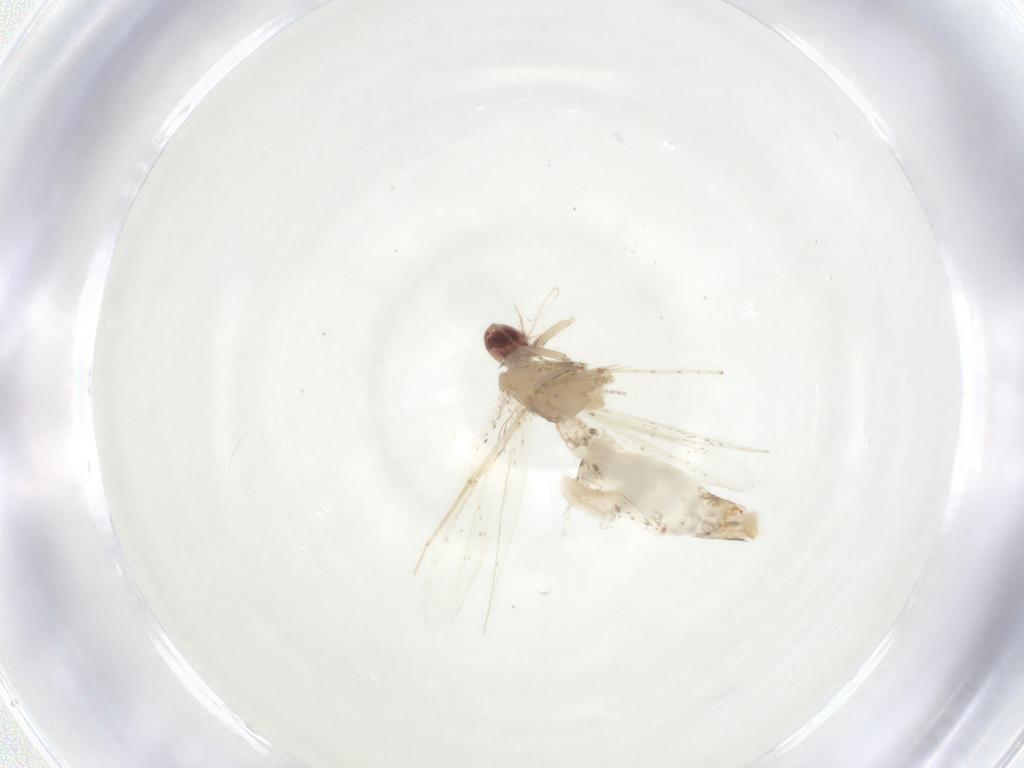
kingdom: Animalia
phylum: Arthropoda
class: Insecta
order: Lepidoptera
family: Gracillariidae
